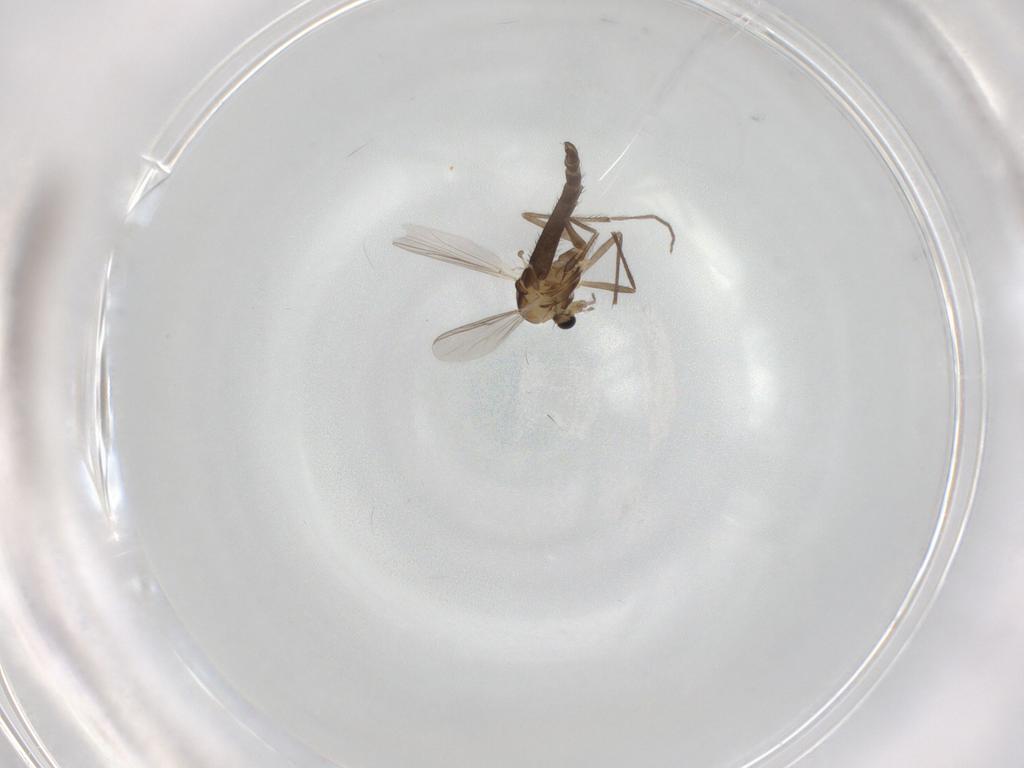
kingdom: Animalia
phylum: Arthropoda
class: Insecta
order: Diptera
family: Chironomidae
